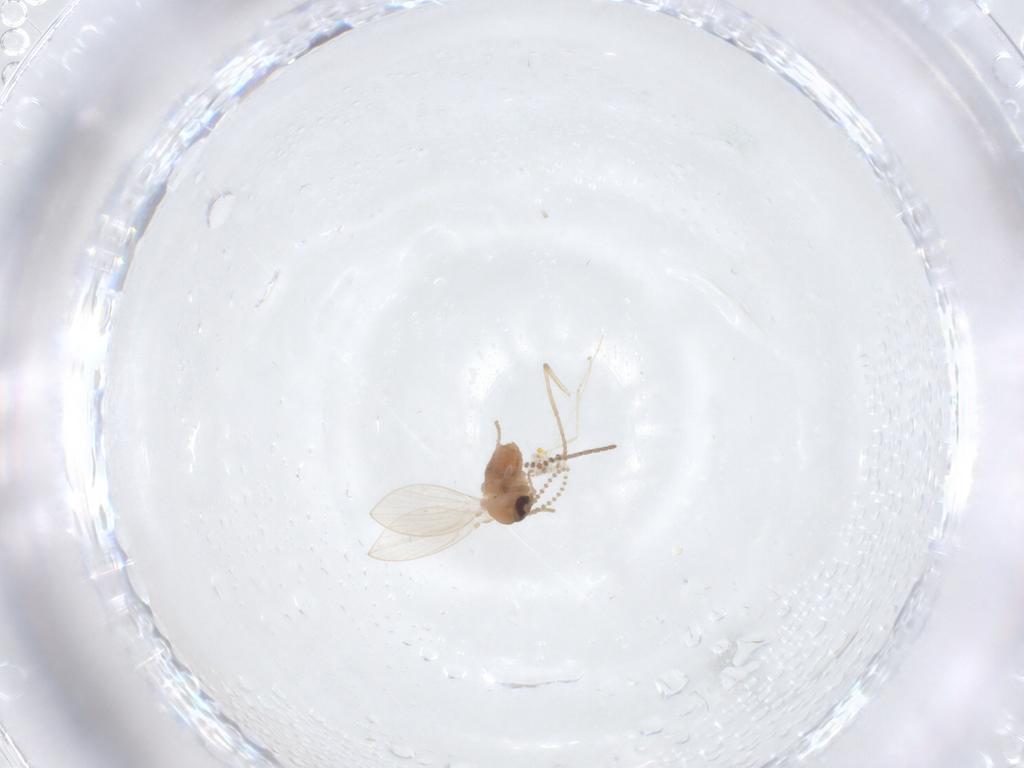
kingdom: Animalia
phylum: Arthropoda
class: Insecta
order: Diptera
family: Psychodidae
